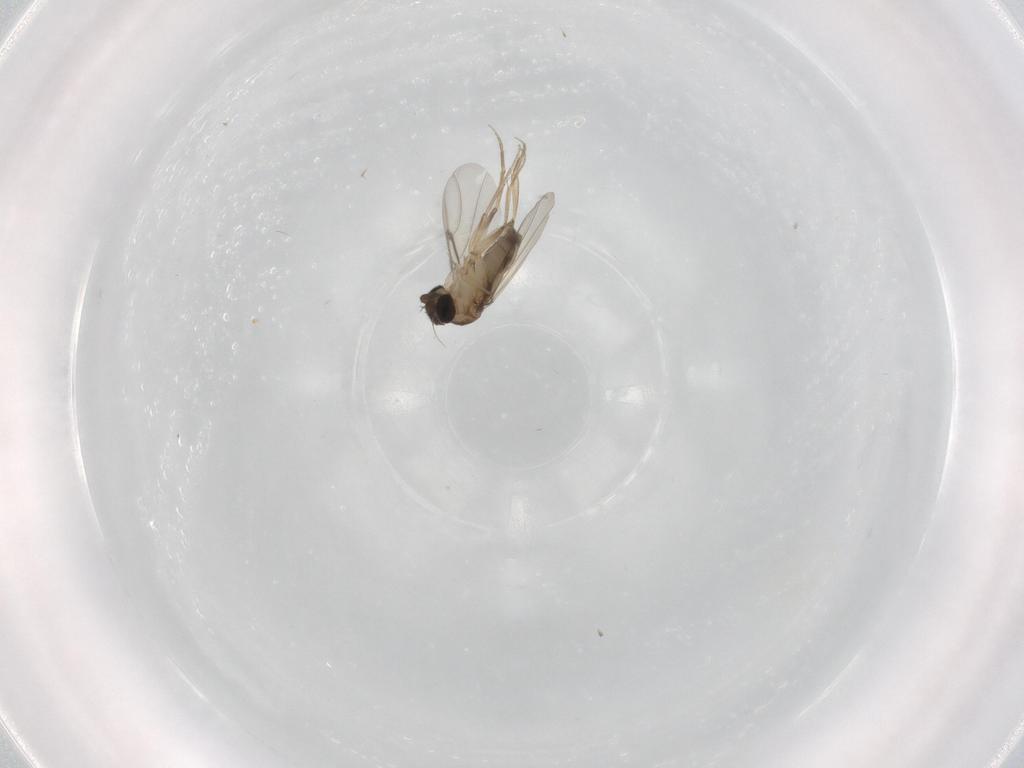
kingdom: Animalia
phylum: Arthropoda
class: Insecta
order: Diptera
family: Phoridae
